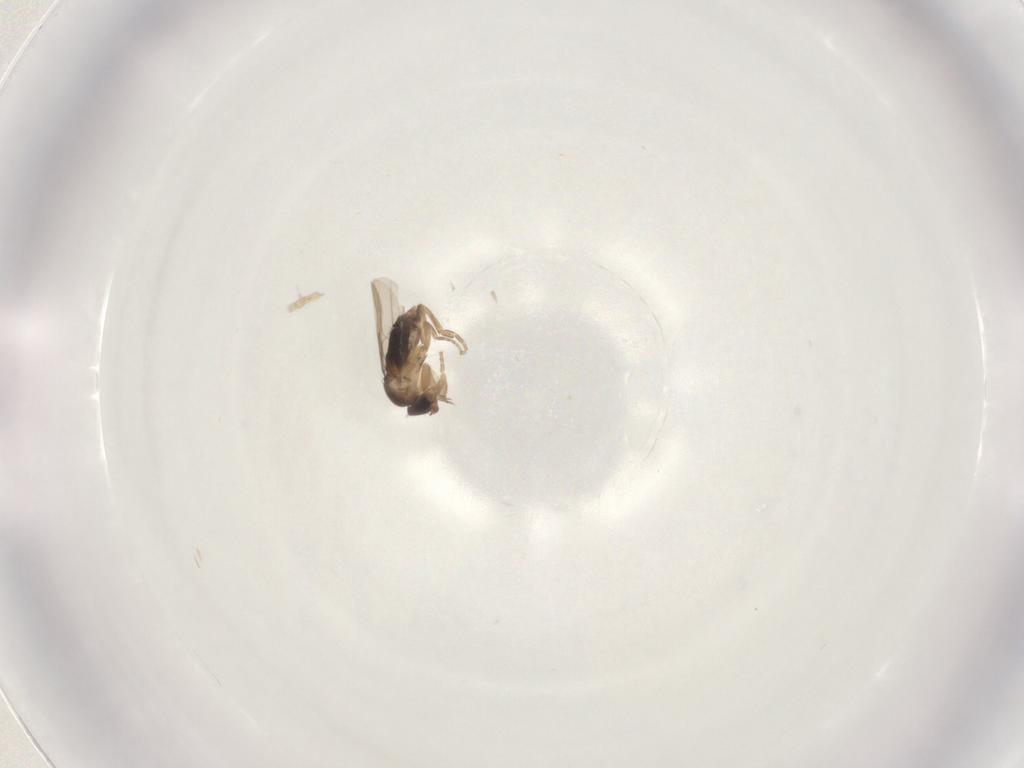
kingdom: Animalia
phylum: Arthropoda
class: Insecta
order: Diptera
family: Phoridae
